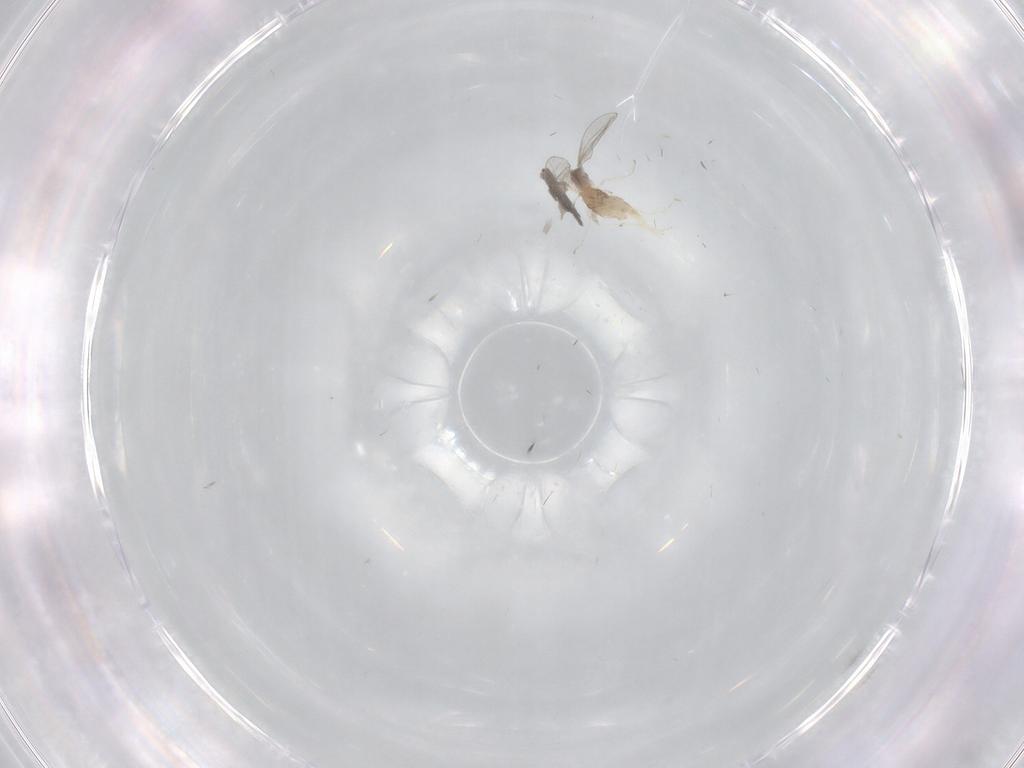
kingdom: Animalia
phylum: Arthropoda
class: Insecta
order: Diptera
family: Cecidomyiidae
